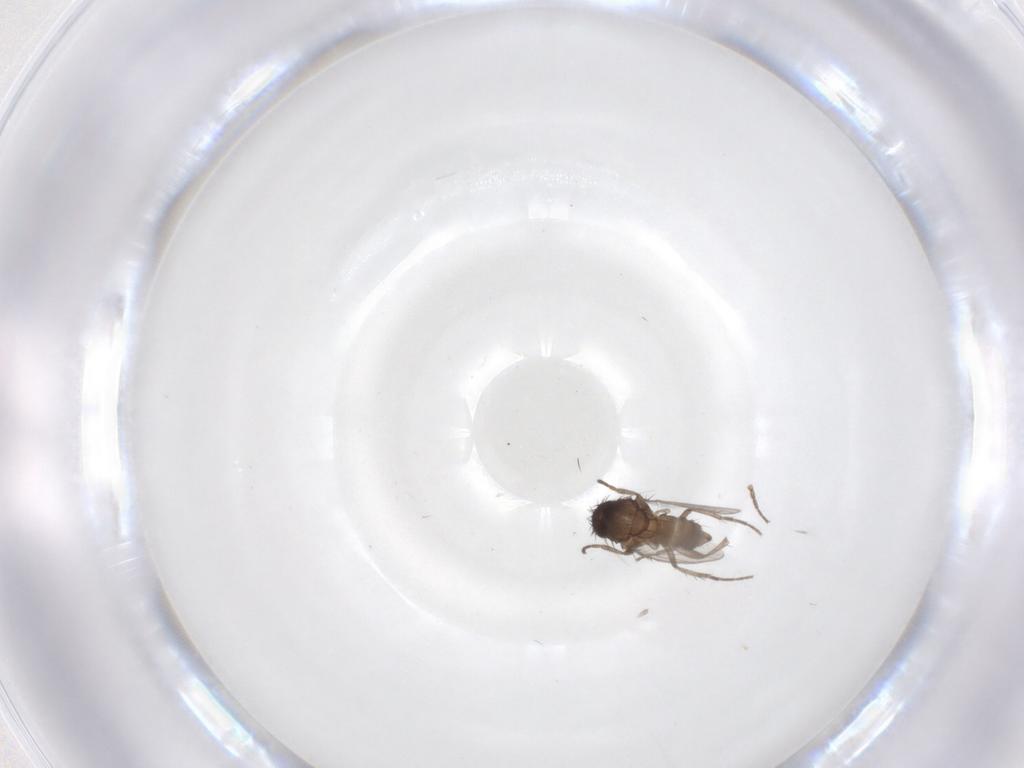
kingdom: Animalia
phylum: Arthropoda
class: Insecta
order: Diptera
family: Sphaeroceridae
